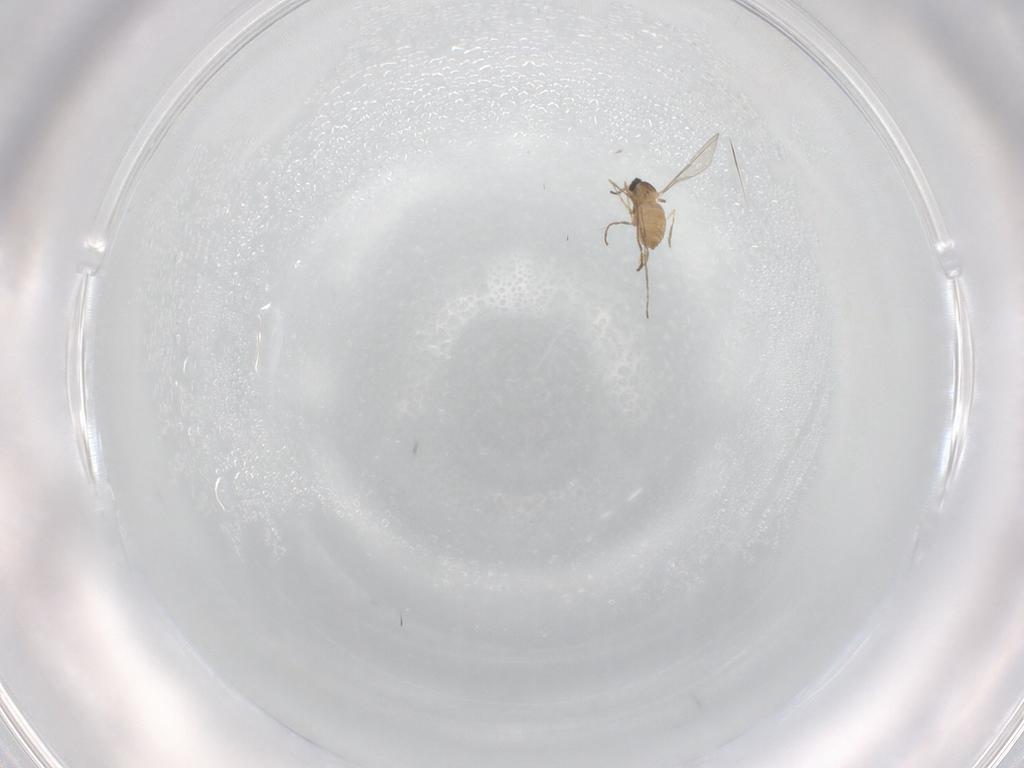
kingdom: Animalia
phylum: Arthropoda
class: Insecta
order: Diptera
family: Cecidomyiidae
